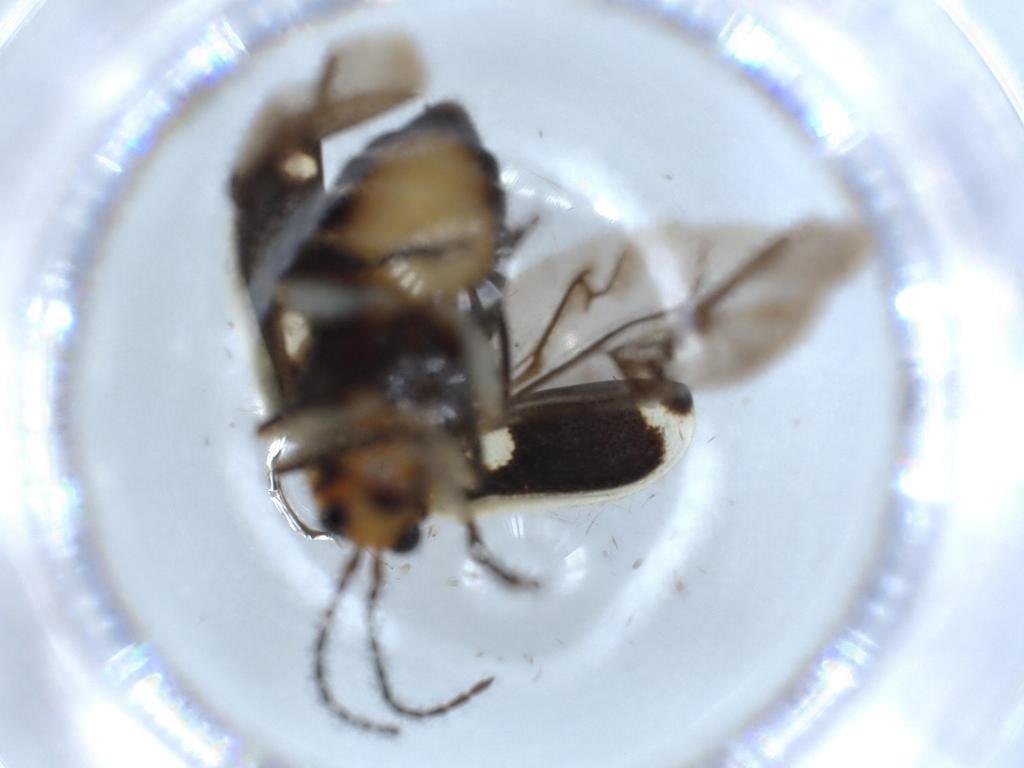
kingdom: Animalia
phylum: Arthropoda
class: Insecta
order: Coleoptera
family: Chrysomelidae
